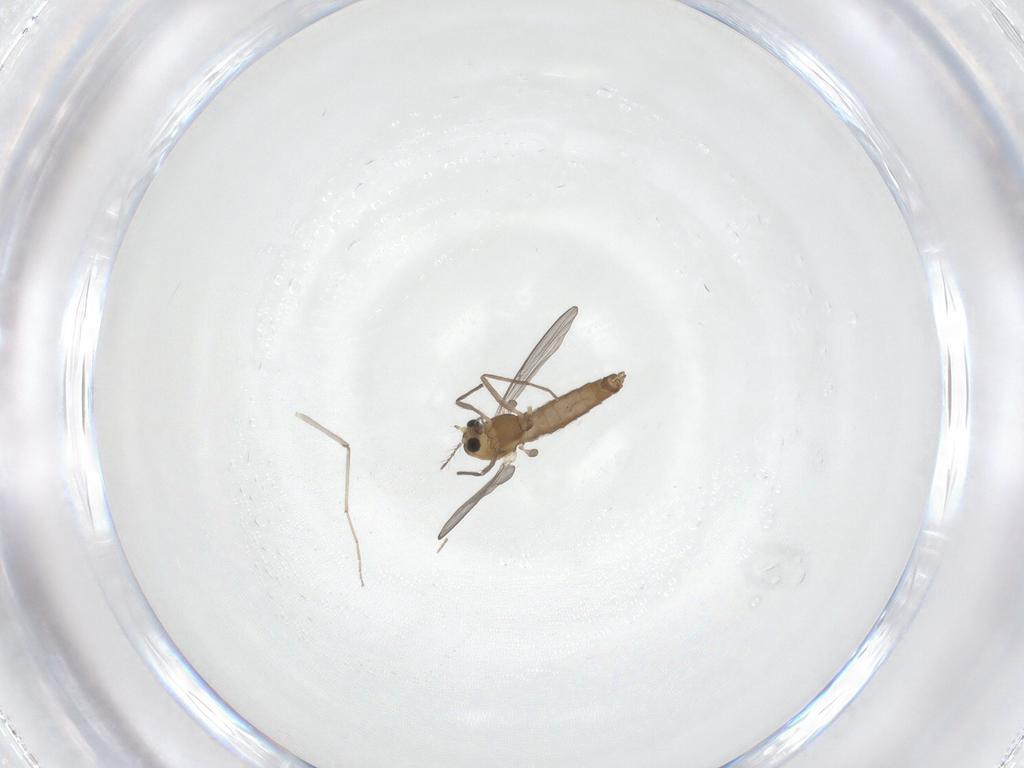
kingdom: Animalia
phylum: Arthropoda
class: Insecta
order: Diptera
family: Chironomidae
